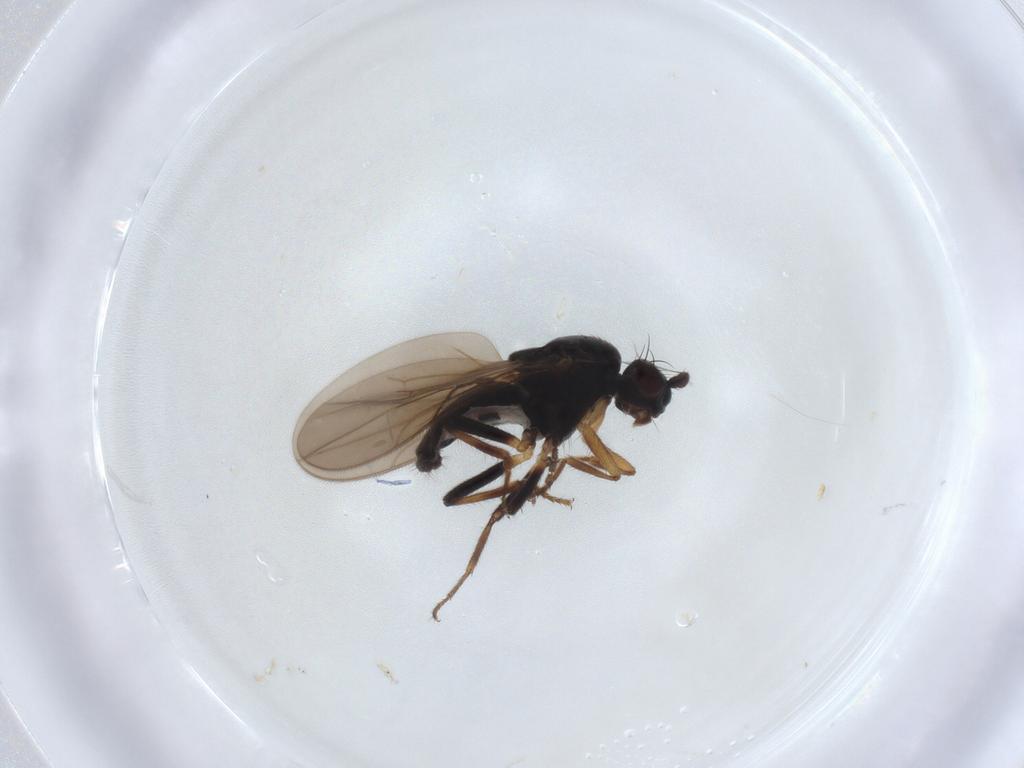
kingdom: Animalia
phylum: Arthropoda
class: Insecta
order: Diptera
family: Sphaeroceridae
